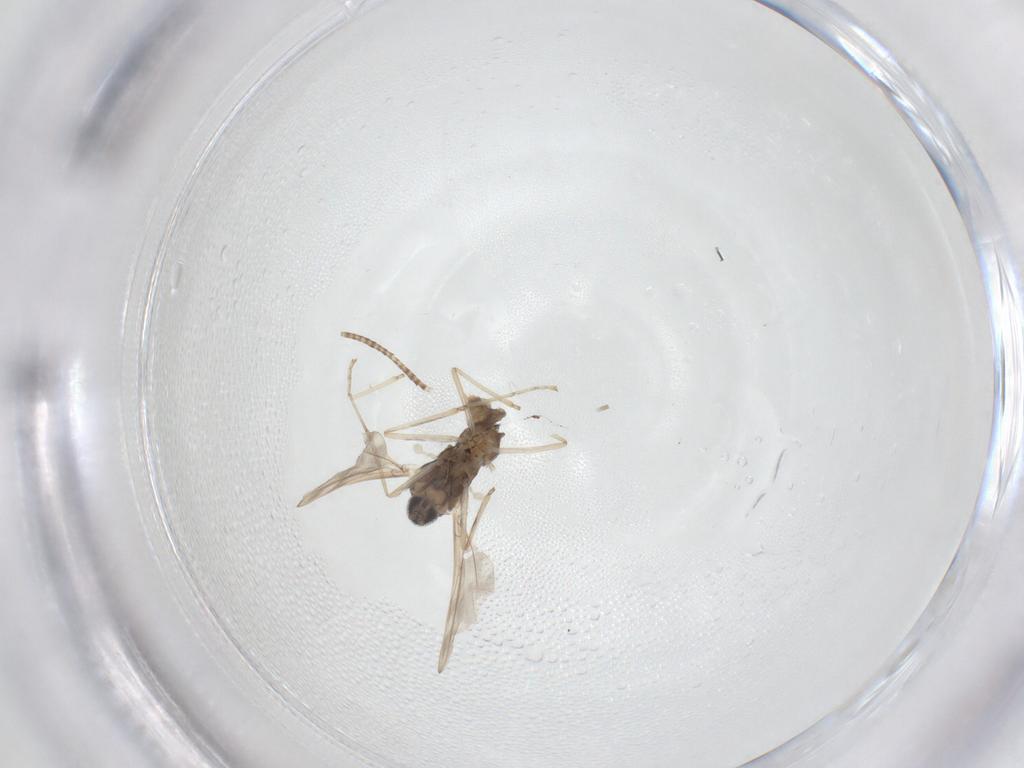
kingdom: Animalia
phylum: Arthropoda
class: Insecta
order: Diptera
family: Cecidomyiidae
